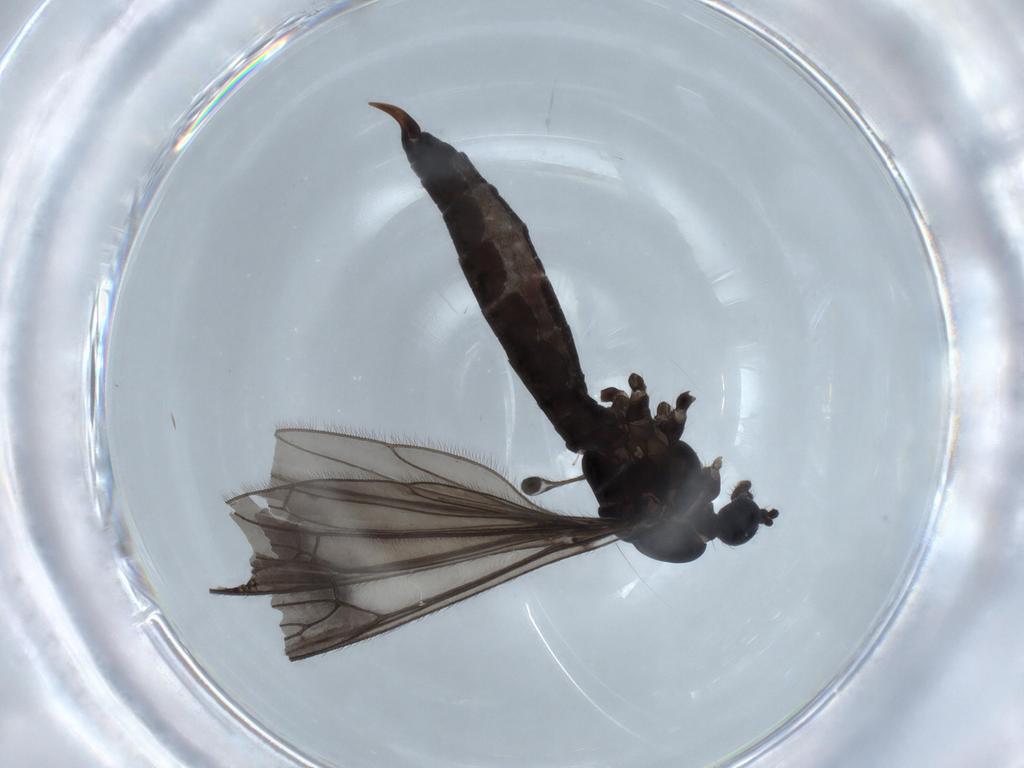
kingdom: Animalia
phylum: Arthropoda
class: Insecta
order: Diptera
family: Limoniidae
